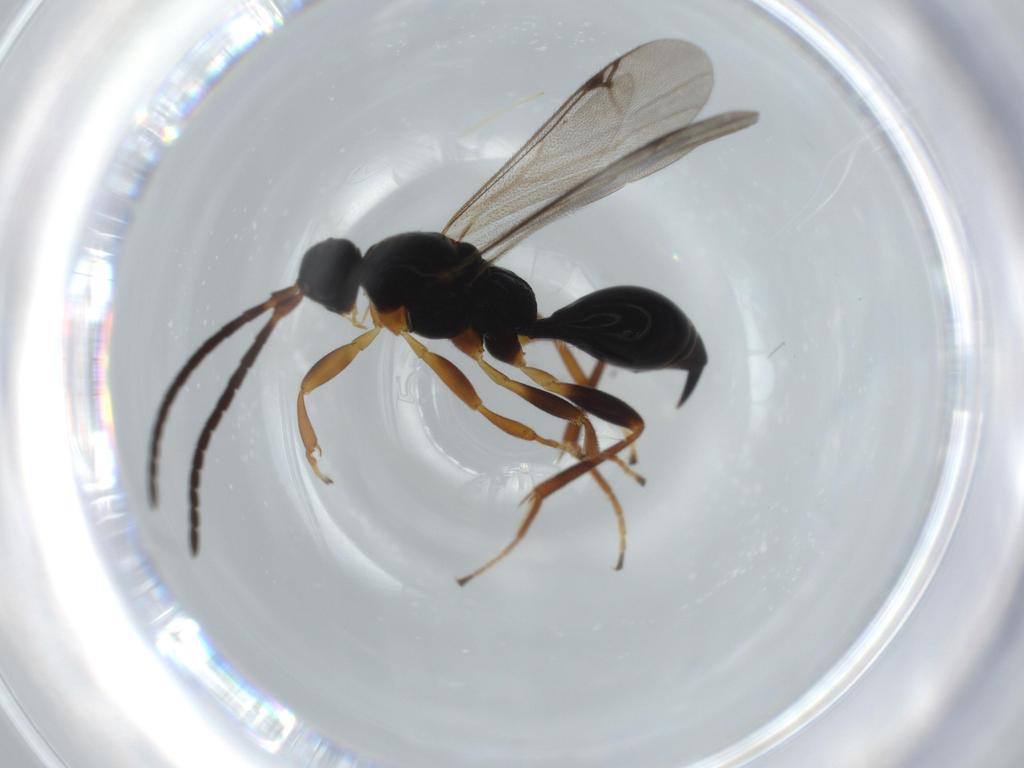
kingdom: Animalia
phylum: Arthropoda
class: Insecta
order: Hymenoptera
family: Proctotrupidae
